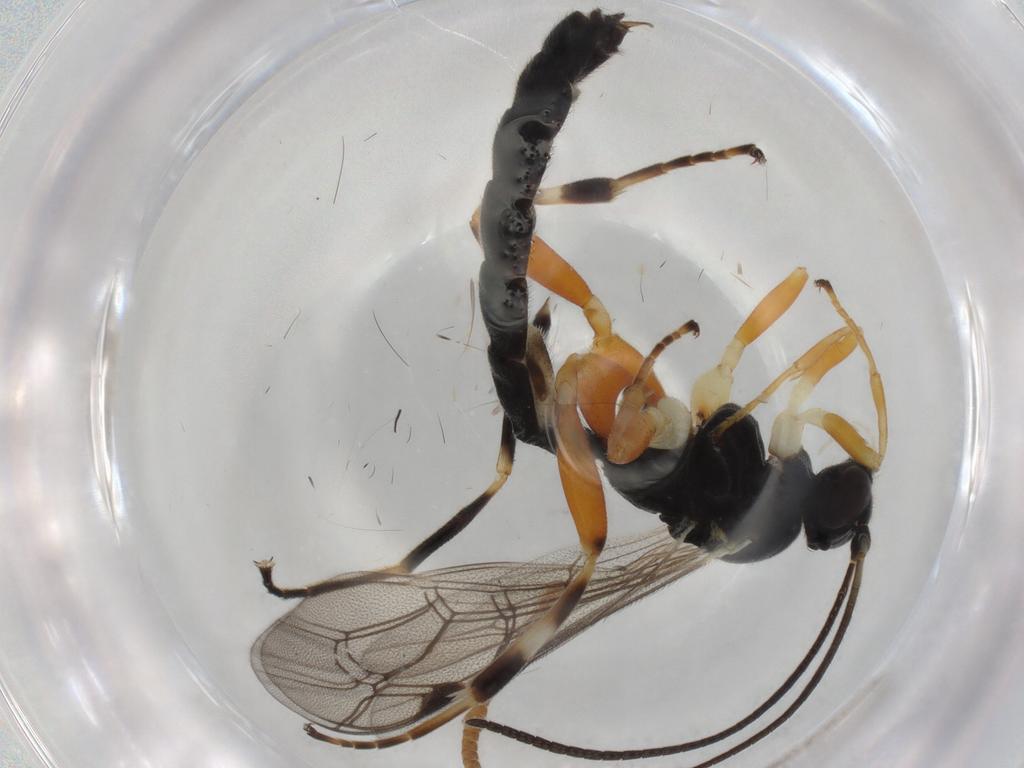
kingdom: Animalia
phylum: Arthropoda
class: Insecta
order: Hymenoptera
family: Ichneumonidae
